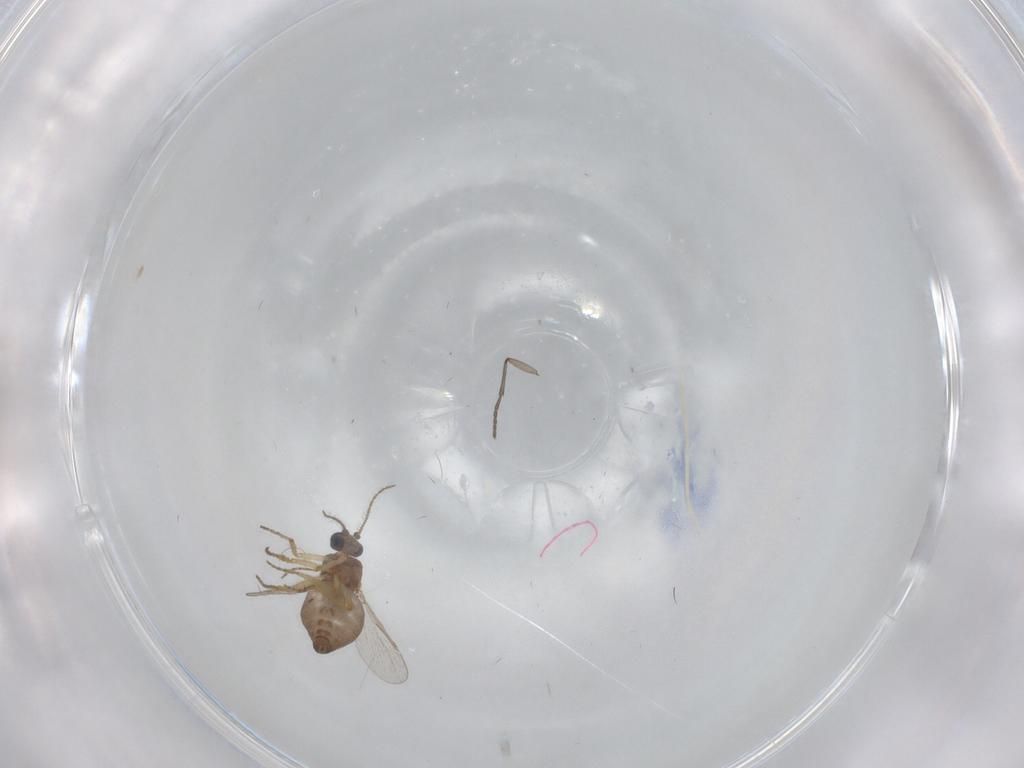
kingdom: Animalia
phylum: Arthropoda
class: Insecta
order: Diptera
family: Ceratopogonidae
